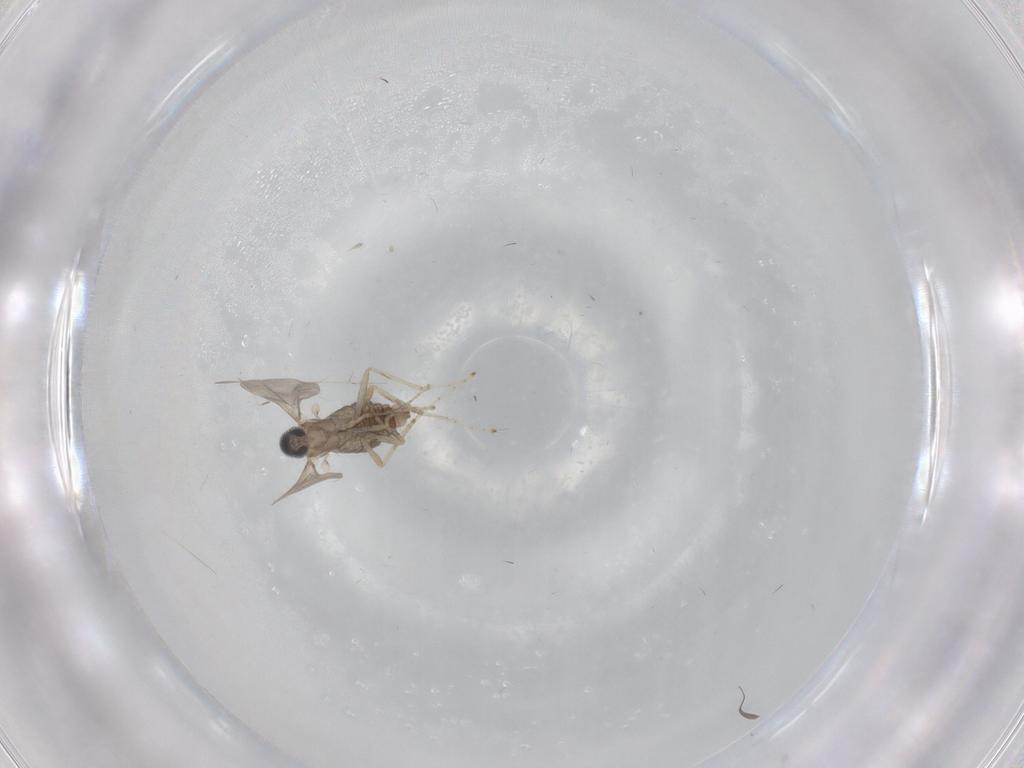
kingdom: Animalia
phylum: Arthropoda
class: Insecta
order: Diptera
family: Cecidomyiidae
